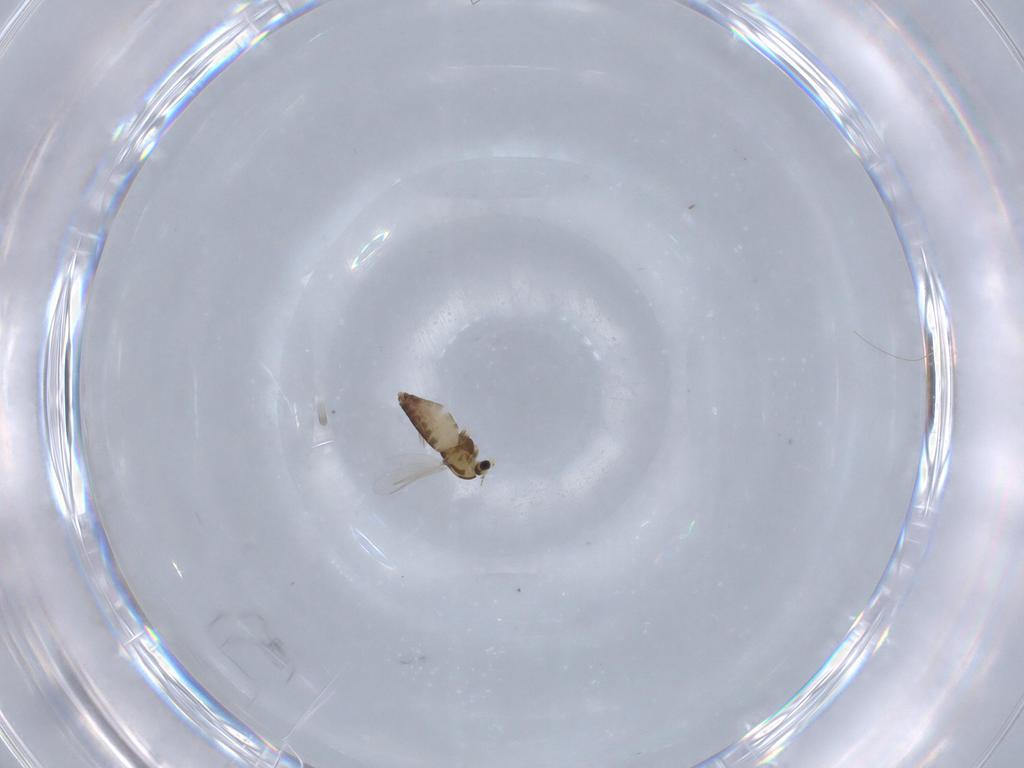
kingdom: Animalia
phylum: Arthropoda
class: Insecta
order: Diptera
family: Chironomidae
